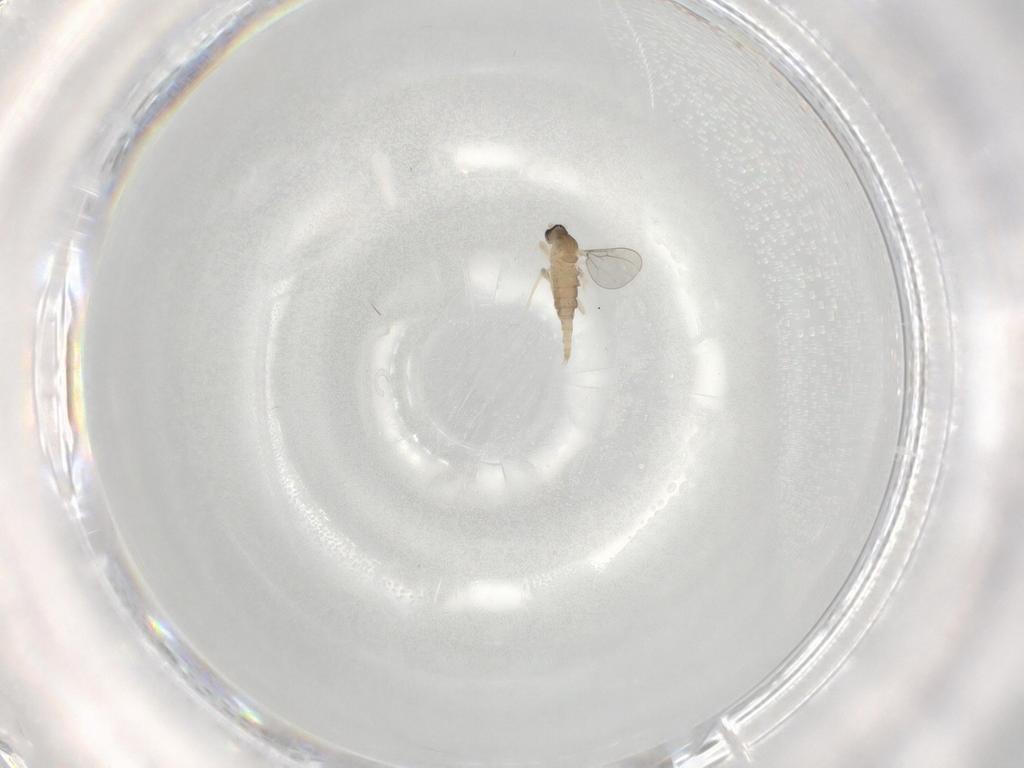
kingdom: Animalia
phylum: Arthropoda
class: Insecta
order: Diptera
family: Cecidomyiidae
